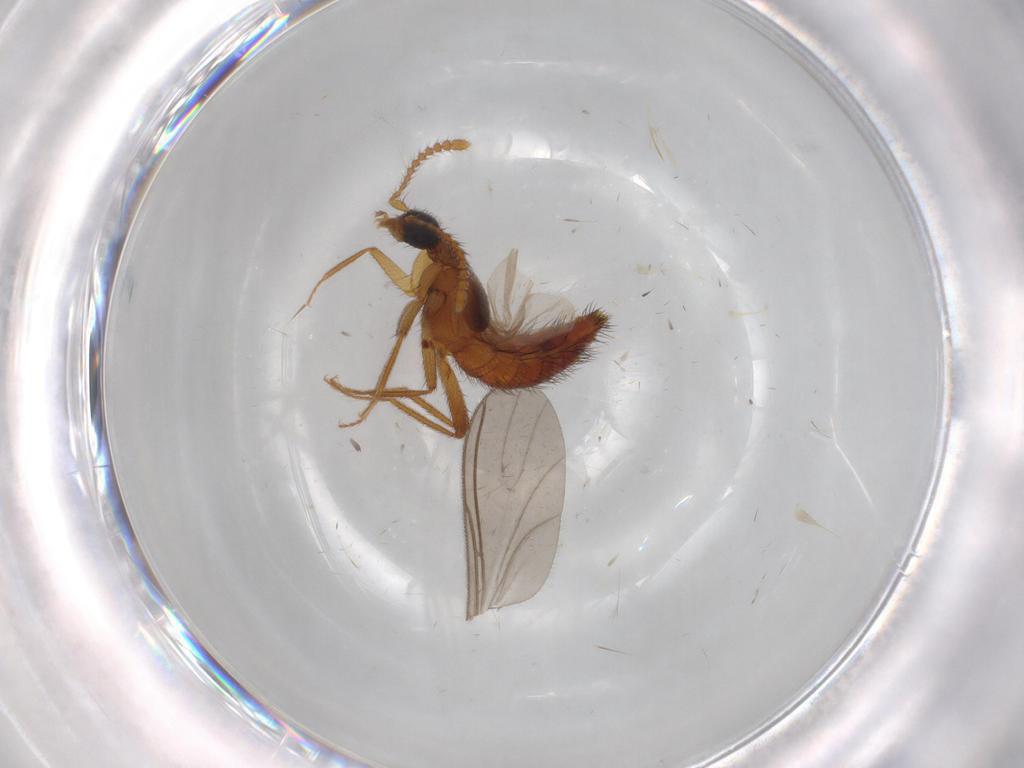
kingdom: Animalia
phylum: Arthropoda
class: Insecta
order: Coleoptera
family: Staphylinidae
